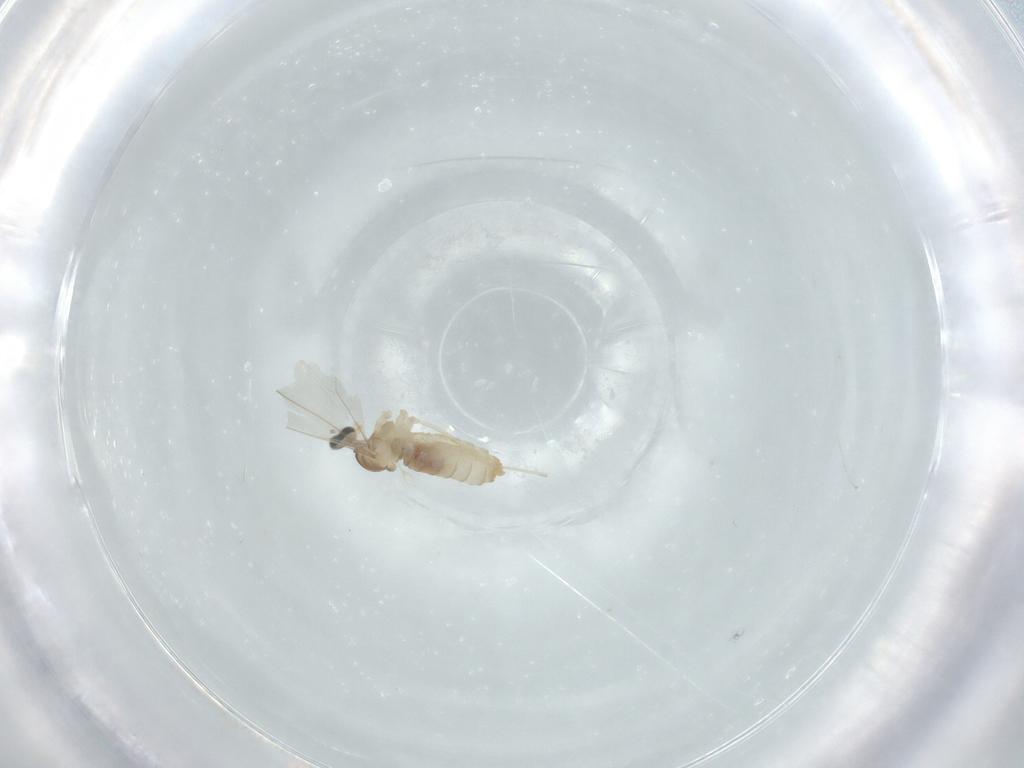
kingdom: Animalia
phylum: Arthropoda
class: Insecta
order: Diptera
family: Cecidomyiidae
